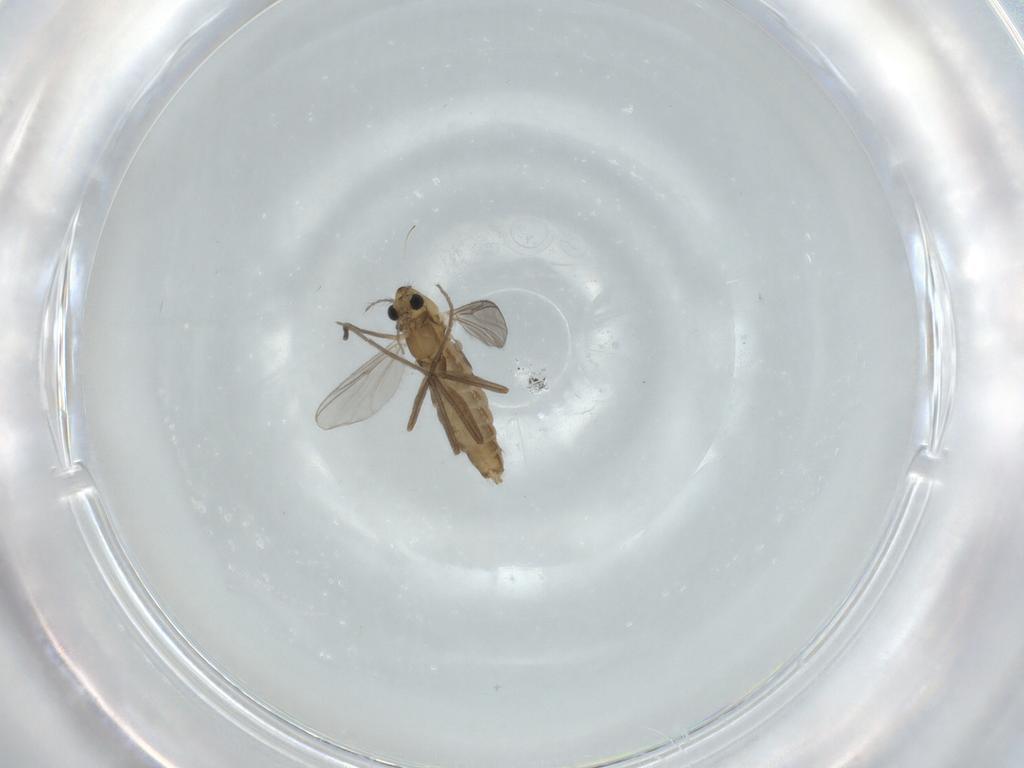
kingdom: Animalia
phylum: Arthropoda
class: Insecta
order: Diptera
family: Chironomidae
